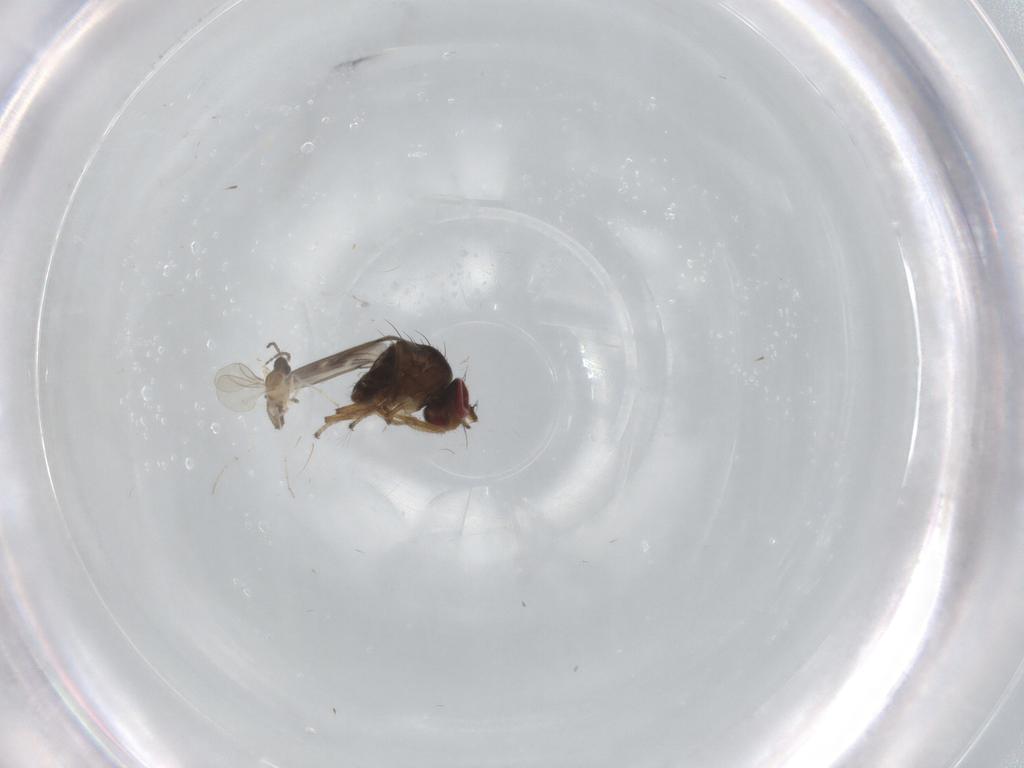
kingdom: Animalia
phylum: Arthropoda
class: Insecta
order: Diptera
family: Ephydridae
